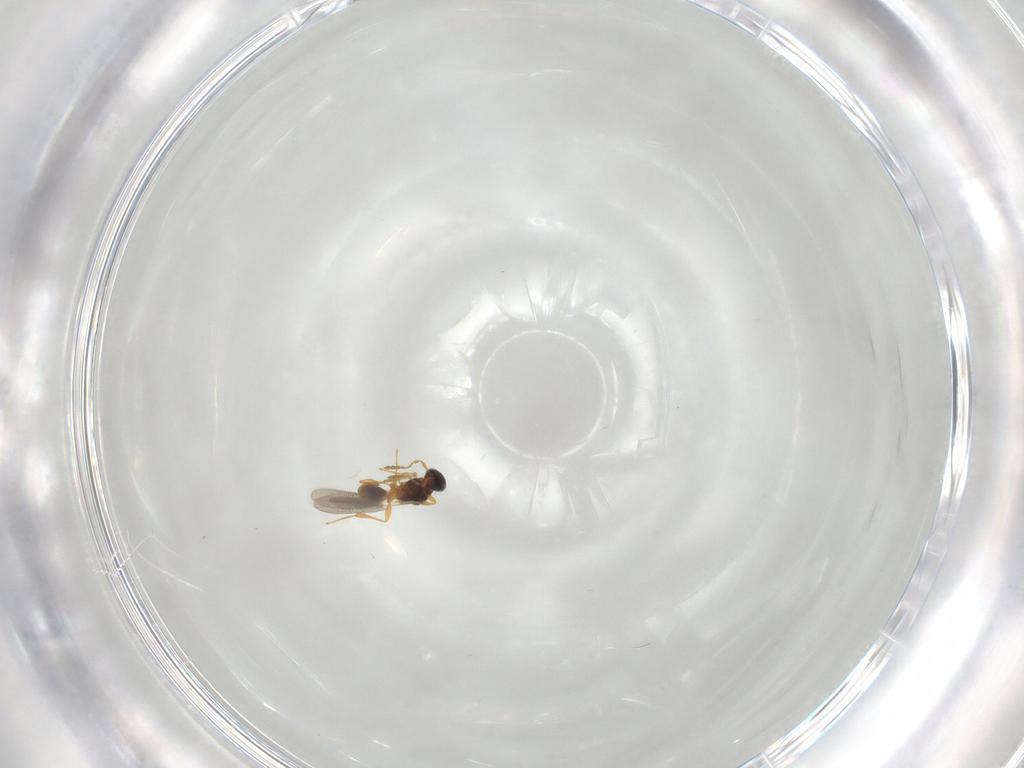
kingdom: Animalia
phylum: Arthropoda
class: Insecta
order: Hymenoptera
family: Platygastridae
